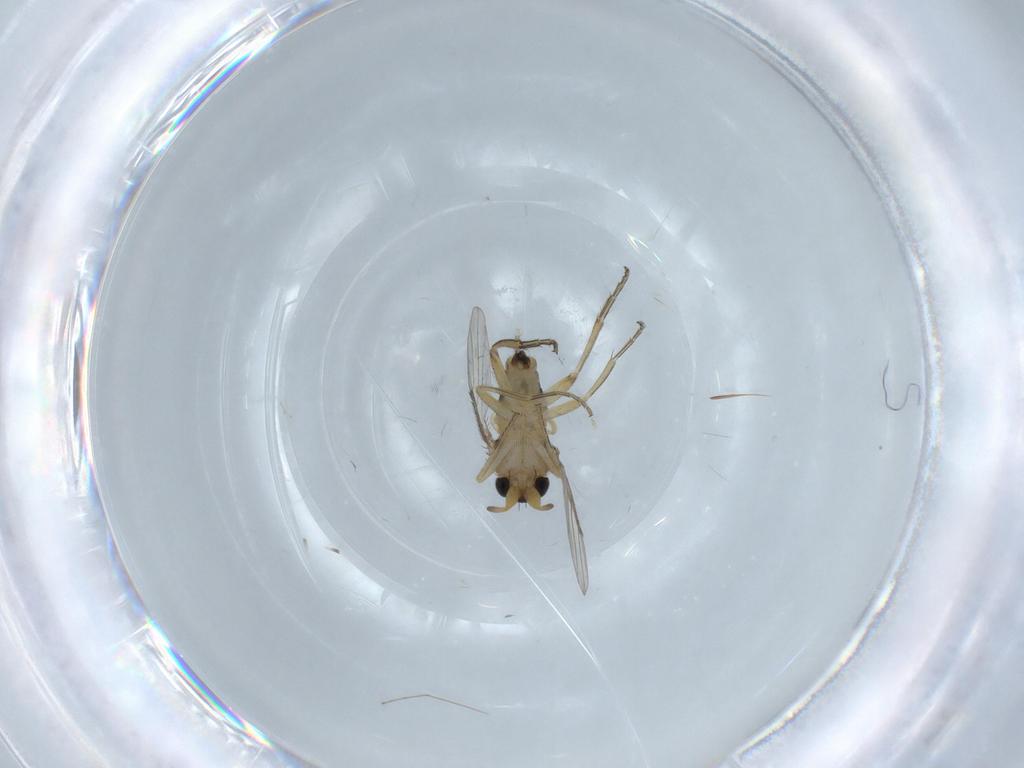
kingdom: Animalia
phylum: Arthropoda
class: Insecta
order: Diptera
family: Phoridae
